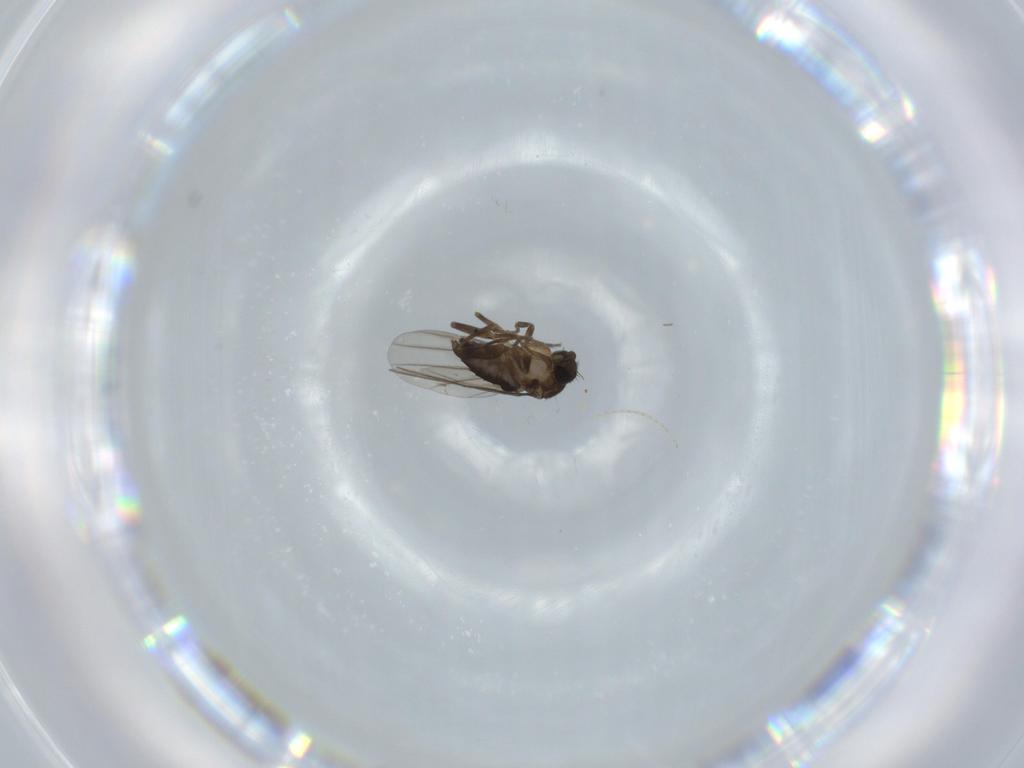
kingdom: Animalia
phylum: Arthropoda
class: Insecta
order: Diptera
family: Phoridae
